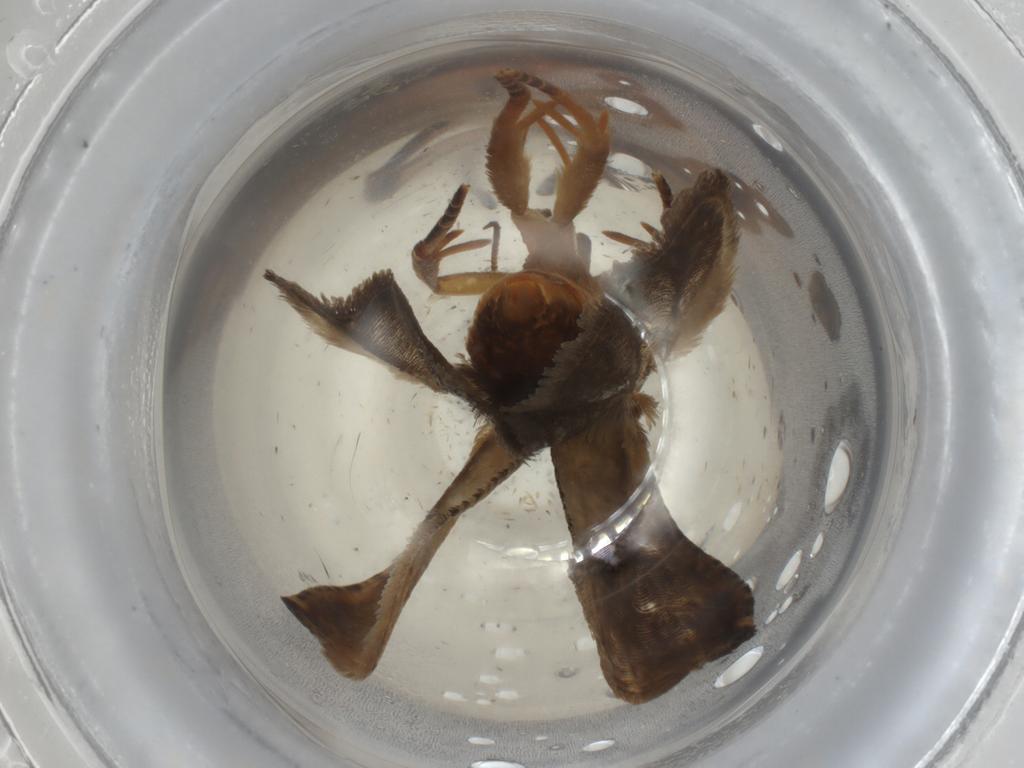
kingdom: Animalia
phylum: Arthropoda
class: Insecta
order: Lepidoptera
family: Tortricidae
